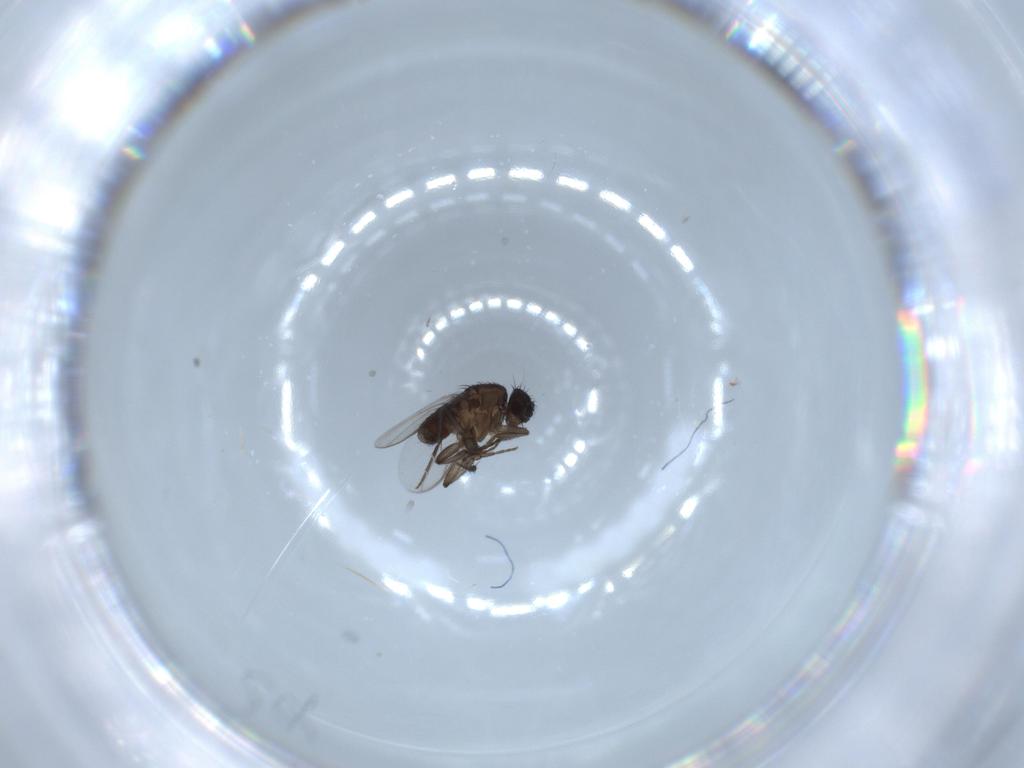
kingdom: Animalia
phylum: Arthropoda
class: Insecta
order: Diptera
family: Sphaeroceridae
